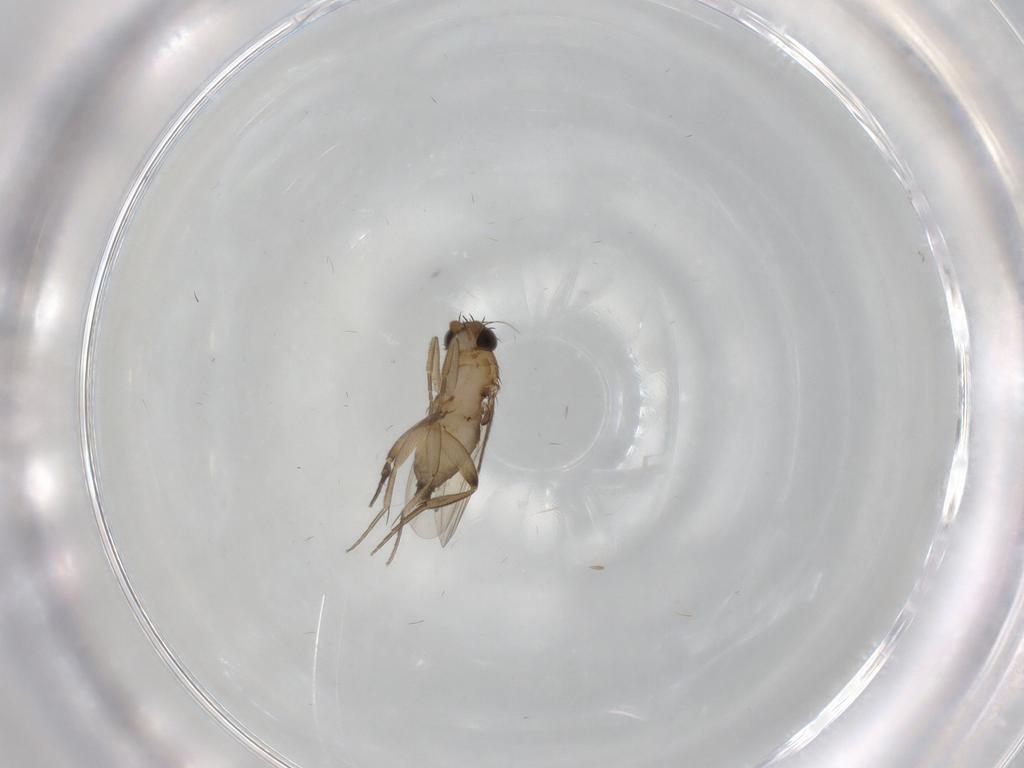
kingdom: Animalia
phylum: Arthropoda
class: Insecta
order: Diptera
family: Phoridae
